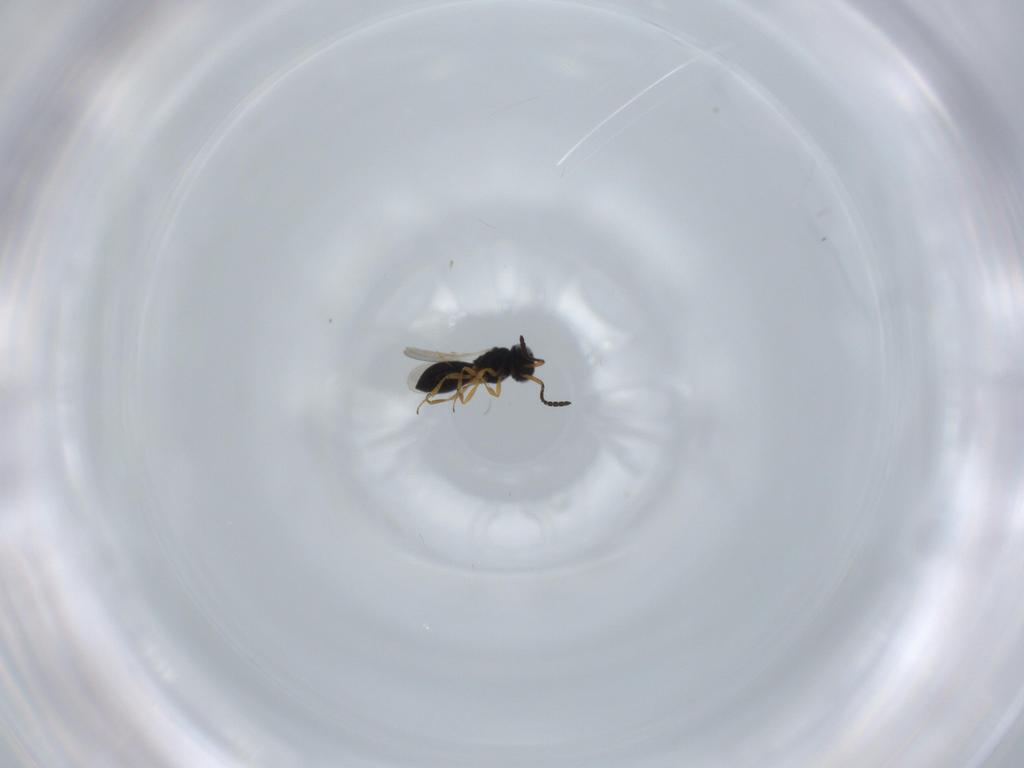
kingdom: Animalia
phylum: Arthropoda
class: Insecta
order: Hymenoptera
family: Scelionidae
